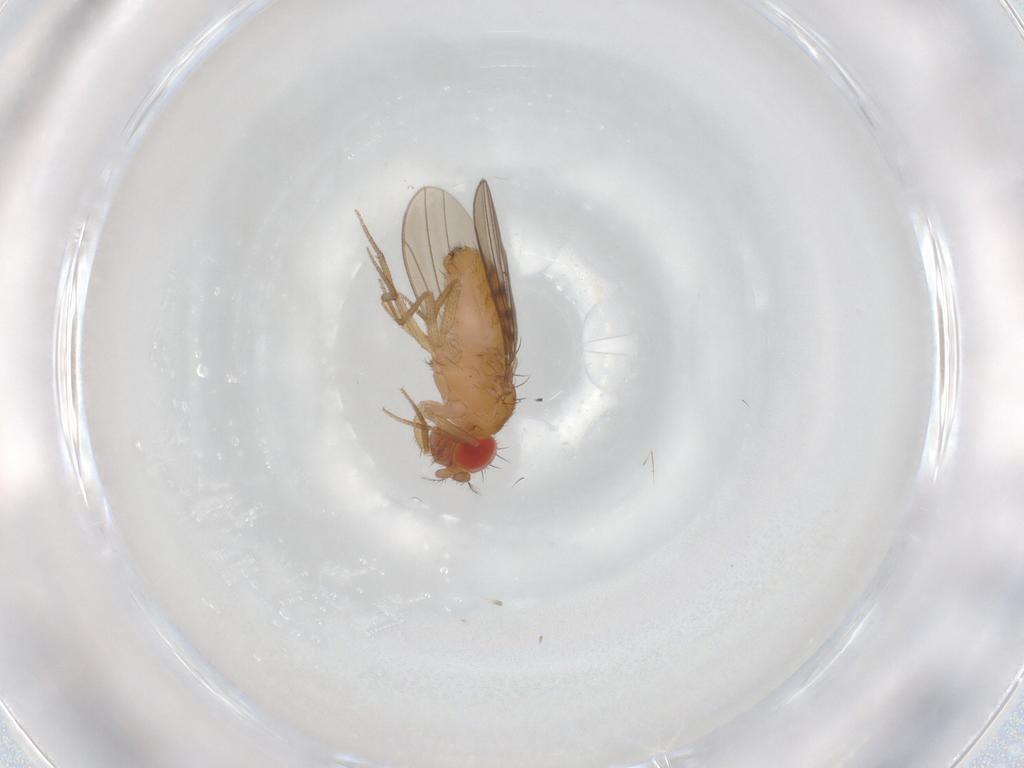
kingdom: Animalia
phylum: Arthropoda
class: Insecta
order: Diptera
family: Drosophilidae
